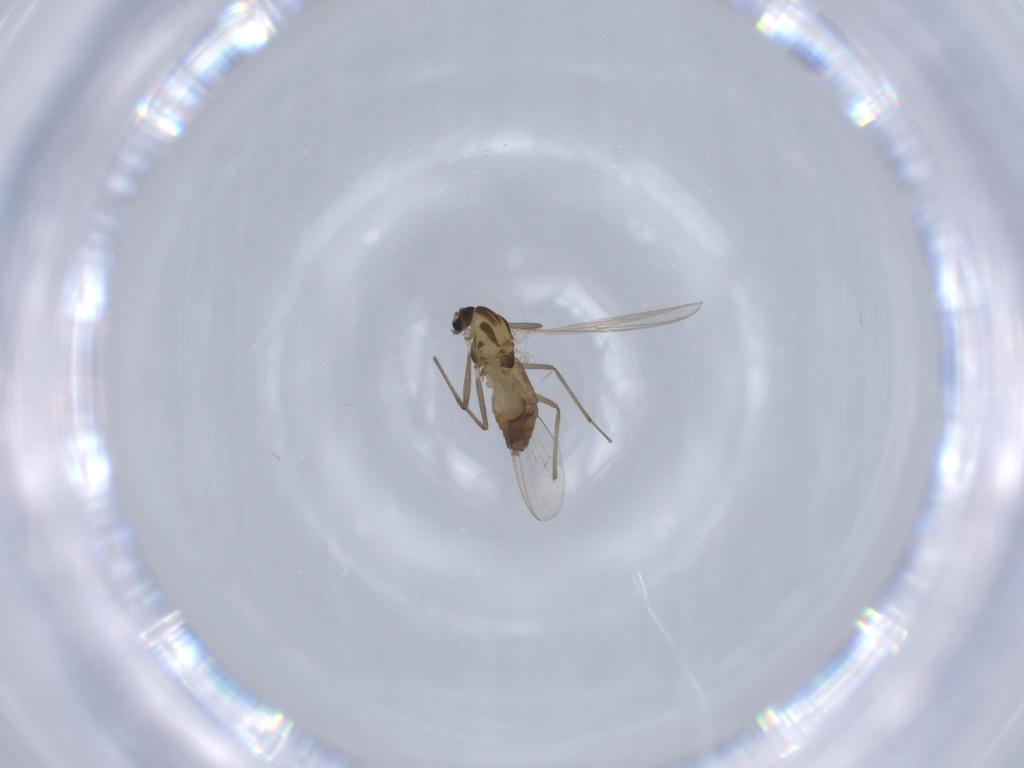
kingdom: Animalia
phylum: Arthropoda
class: Insecta
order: Diptera
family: Chironomidae
